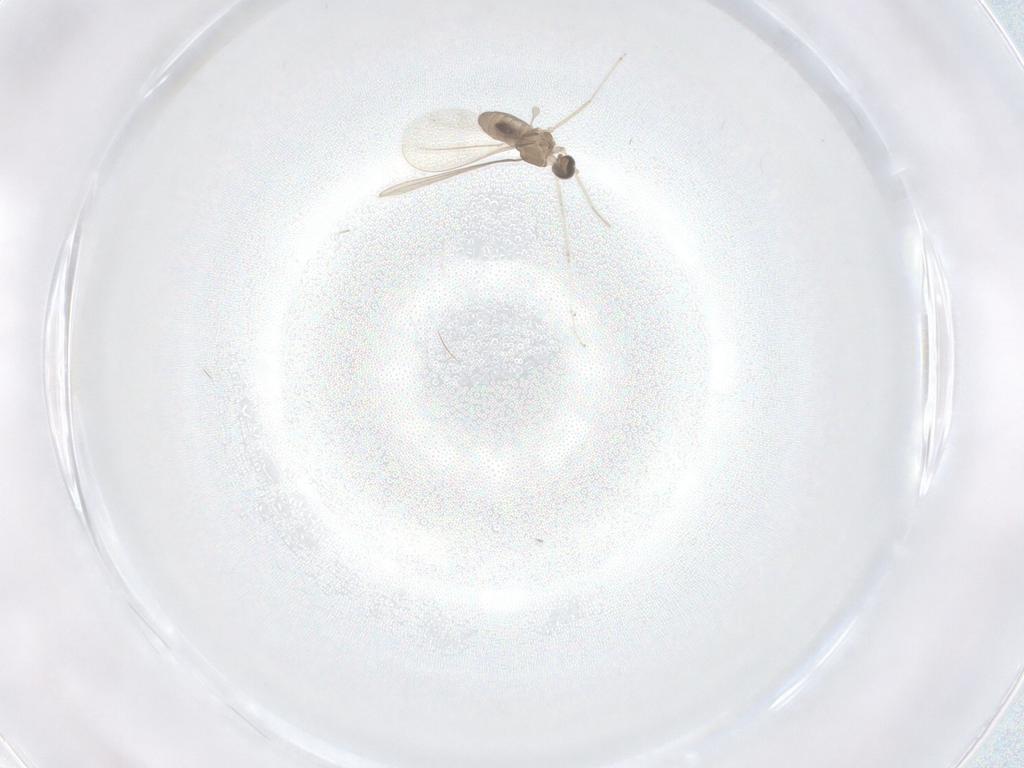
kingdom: Animalia
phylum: Arthropoda
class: Insecta
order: Diptera
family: Cecidomyiidae
